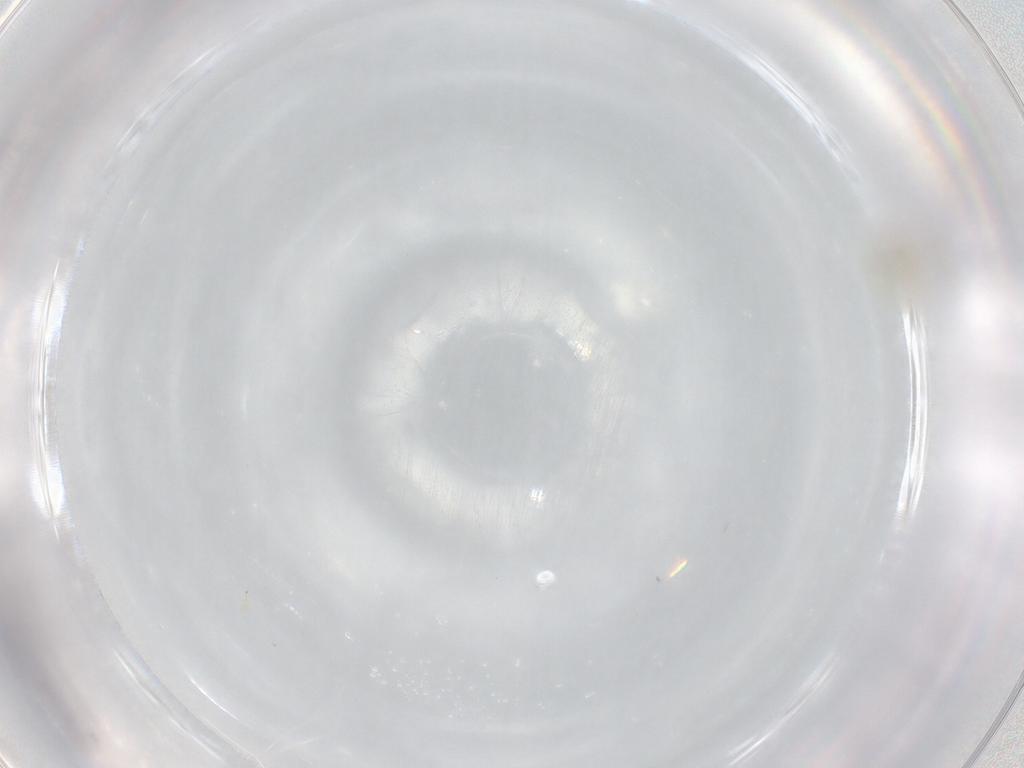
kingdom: Animalia
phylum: Arthropoda
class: Insecta
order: Hymenoptera
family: Trichogrammatidae
